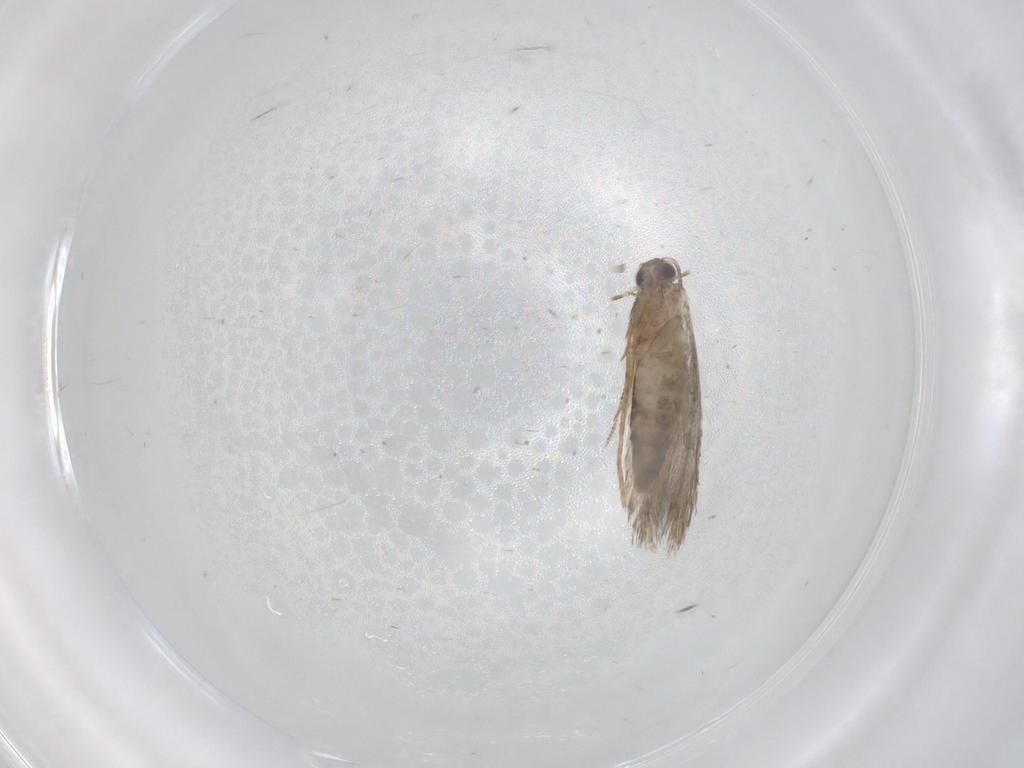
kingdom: Animalia
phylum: Arthropoda
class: Insecta
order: Lepidoptera
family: Tineidae
